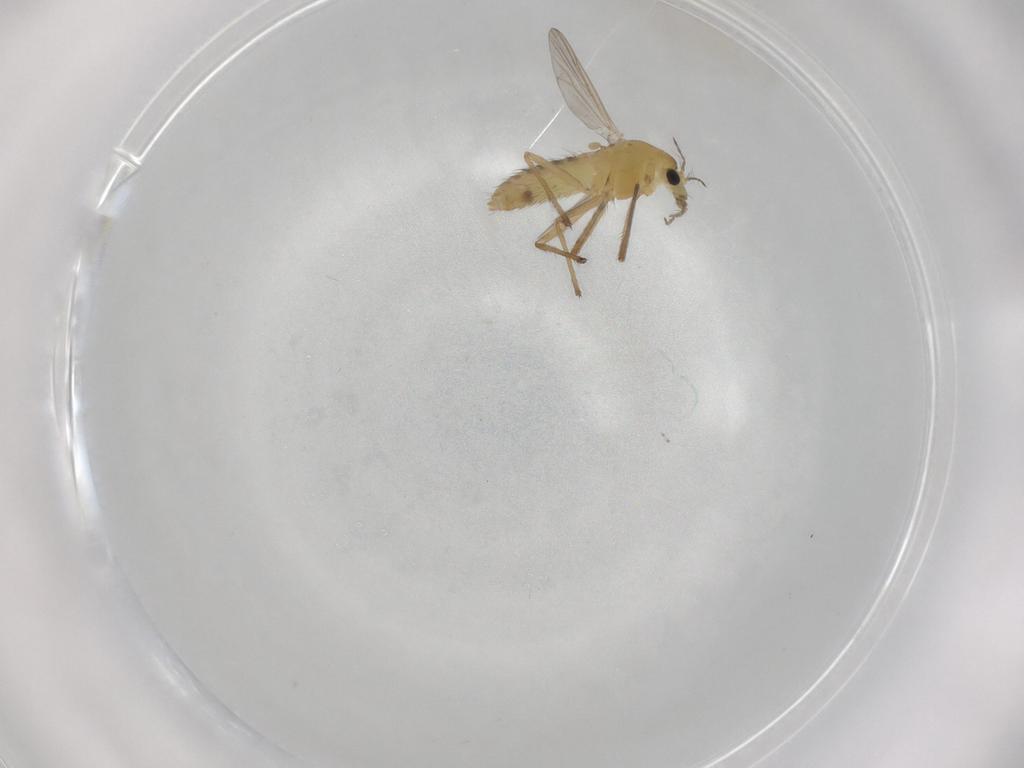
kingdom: Animalia
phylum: Arthropoda
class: Insecta
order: Diptera
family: Chironomidae
